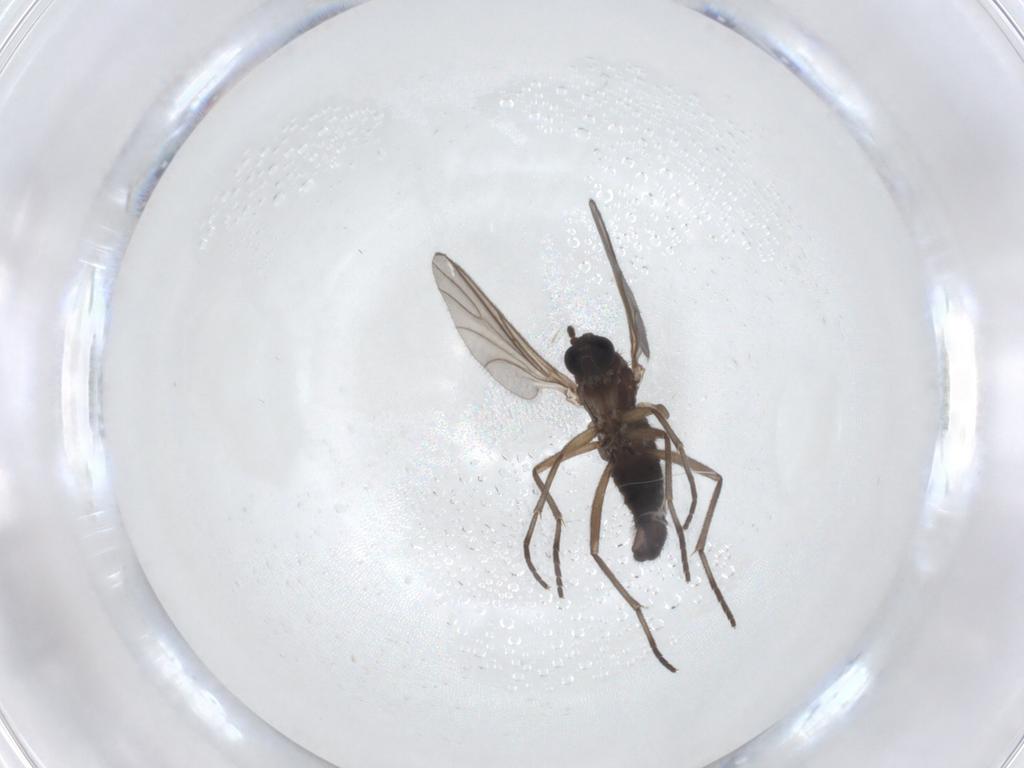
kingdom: Animalia
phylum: Arthropoda
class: Insecta
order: Diptera
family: Sciaridae
